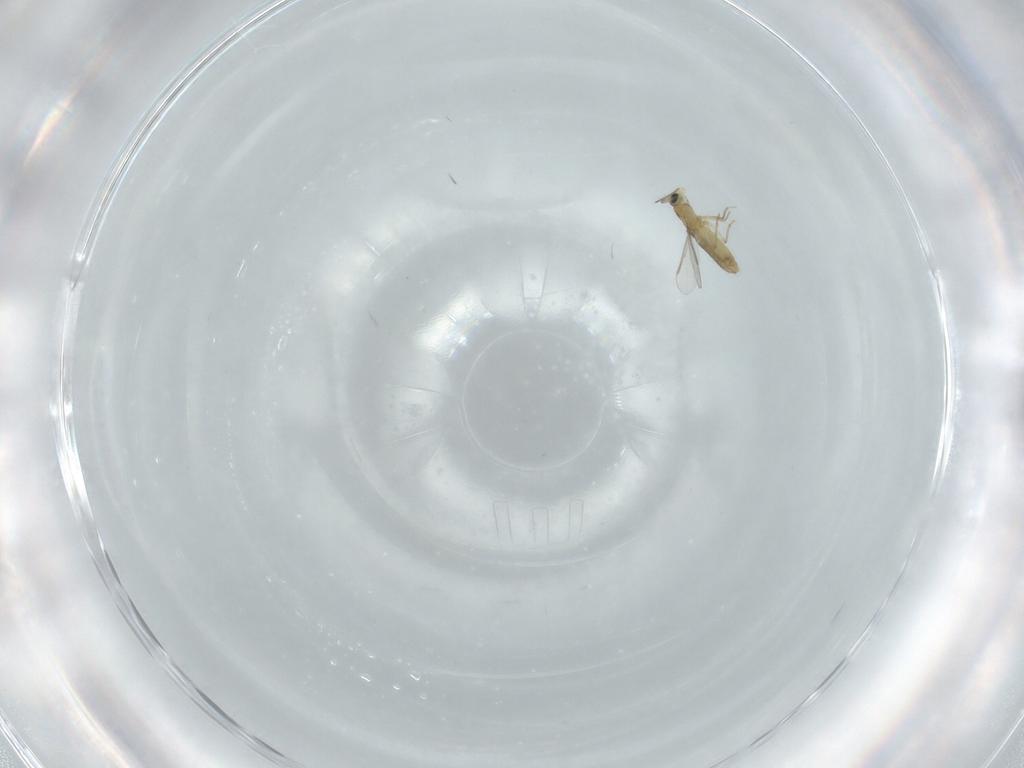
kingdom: Animalia
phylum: Arthropoda
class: Insecta
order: Diptera
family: Chironomidae
